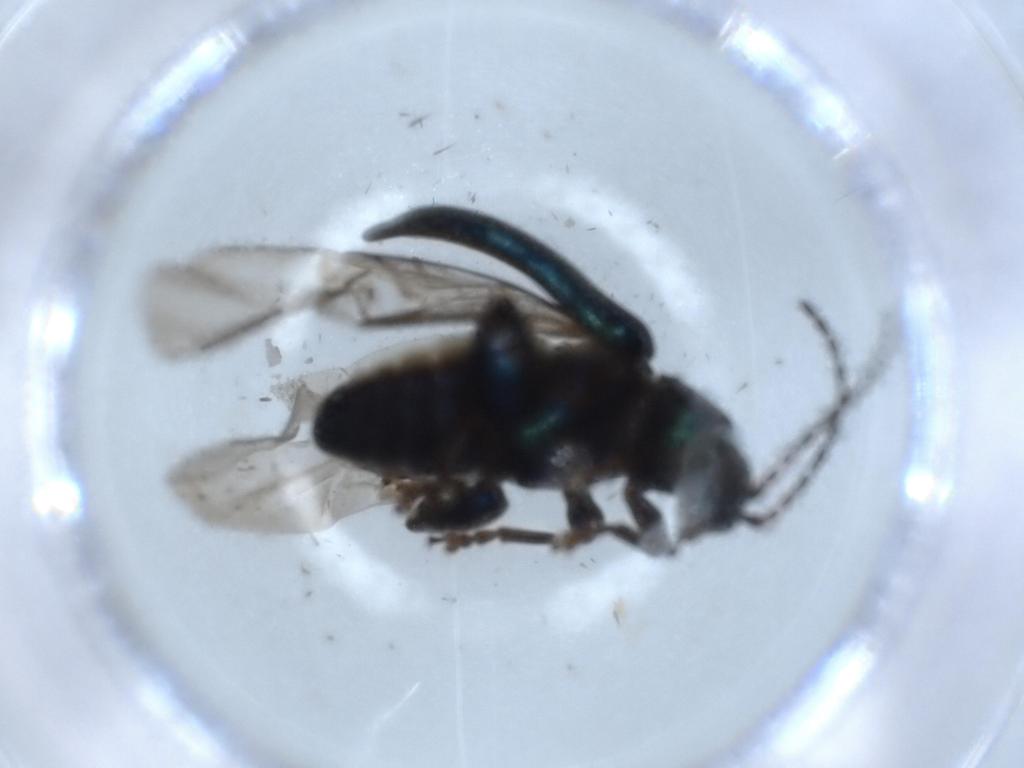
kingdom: Animalia
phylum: Arthropoda
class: Insecta
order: Coleoptera
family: Chrysomelidae
